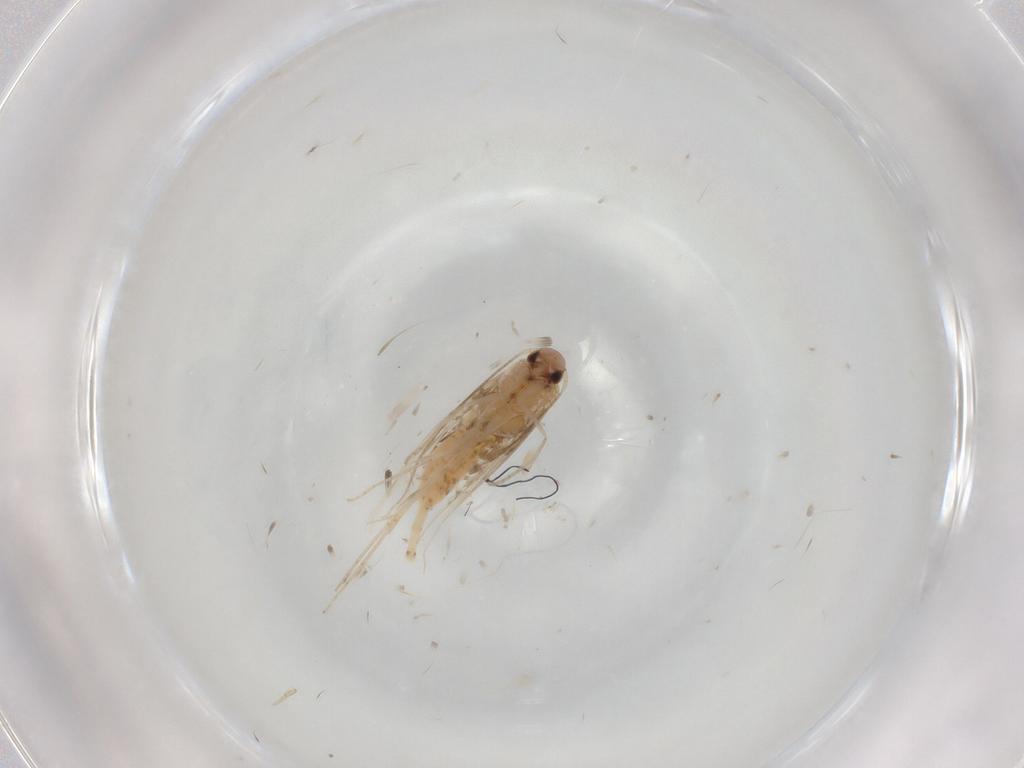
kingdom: Animalia
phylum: Arthropoda
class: Insecta
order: Lepidoptera
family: Gracillariidae
